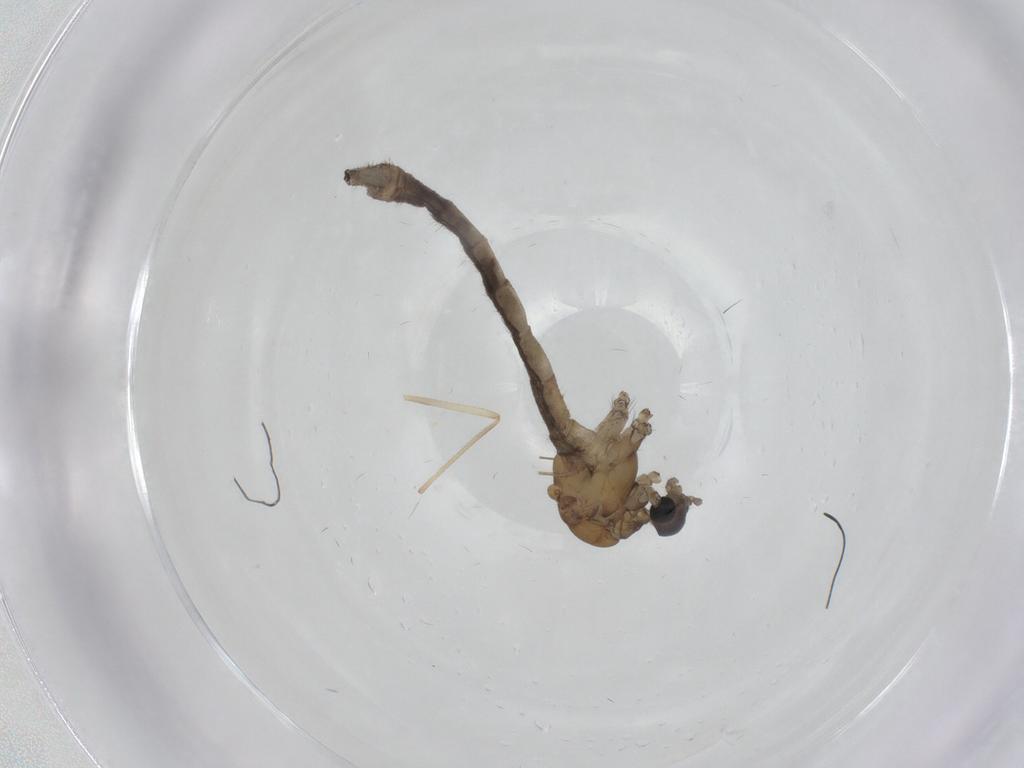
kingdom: Animalia
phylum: Arthropoda
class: Insecta
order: Diptera
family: Limoniidae
